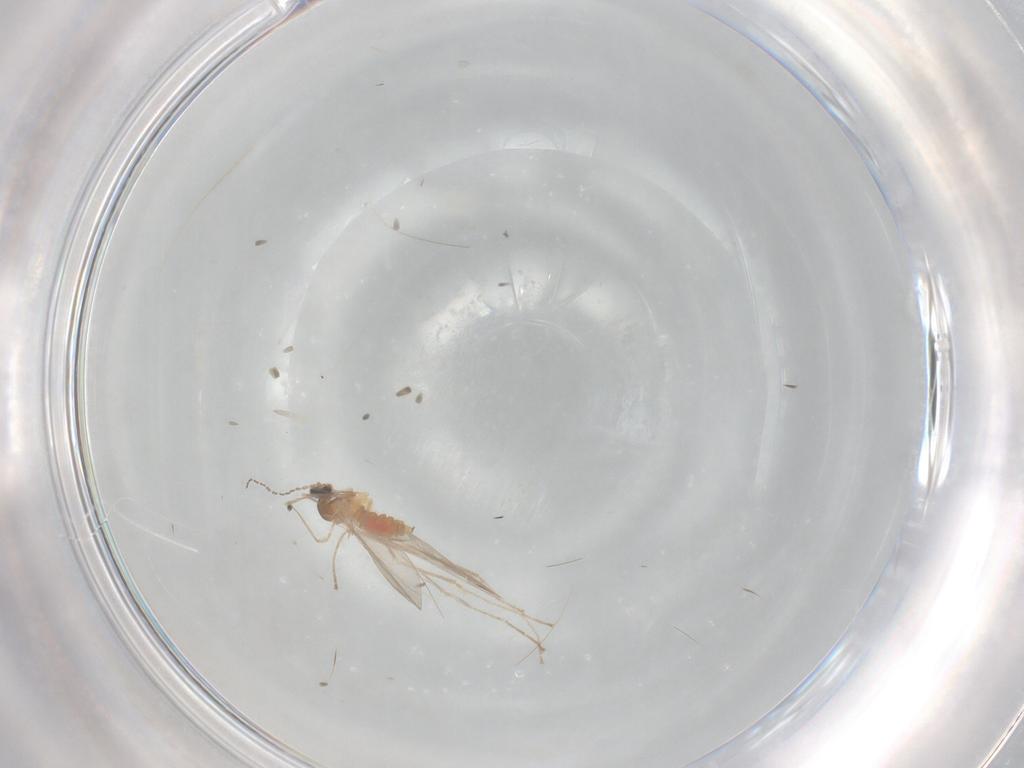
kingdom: Animalia
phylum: Arthropoda
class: Insecta
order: Diptera
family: Cecidomyiidae
